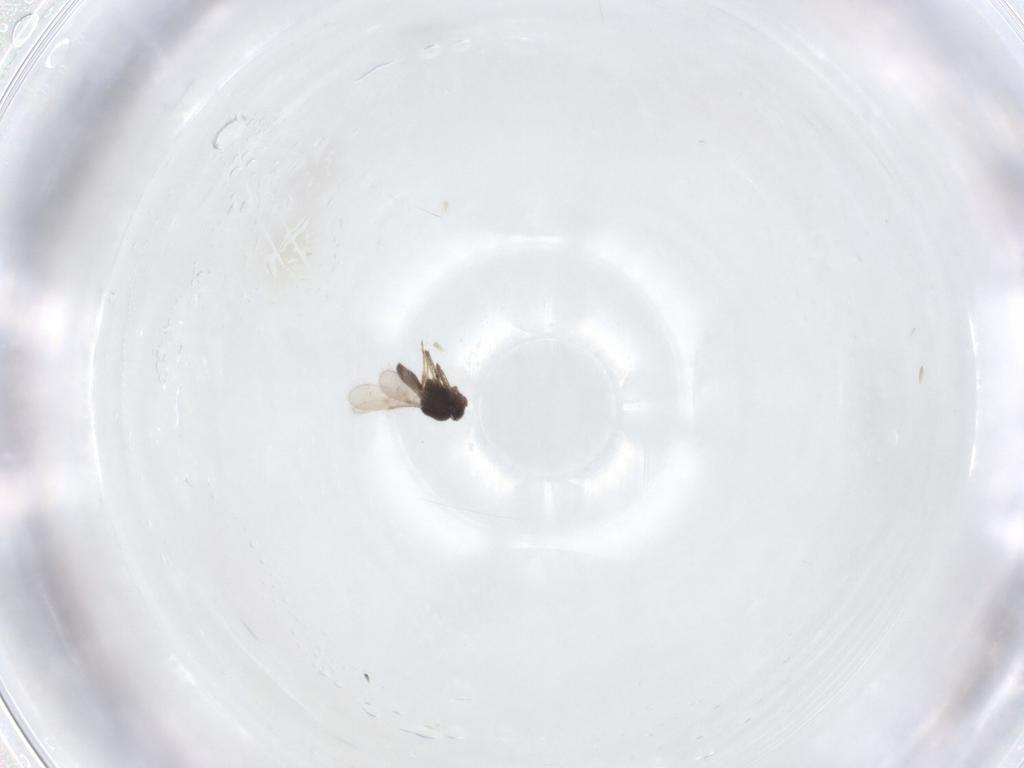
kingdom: Animalia
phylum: Arthropoda
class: Insecta
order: Hymenoptera
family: Scelionidae
